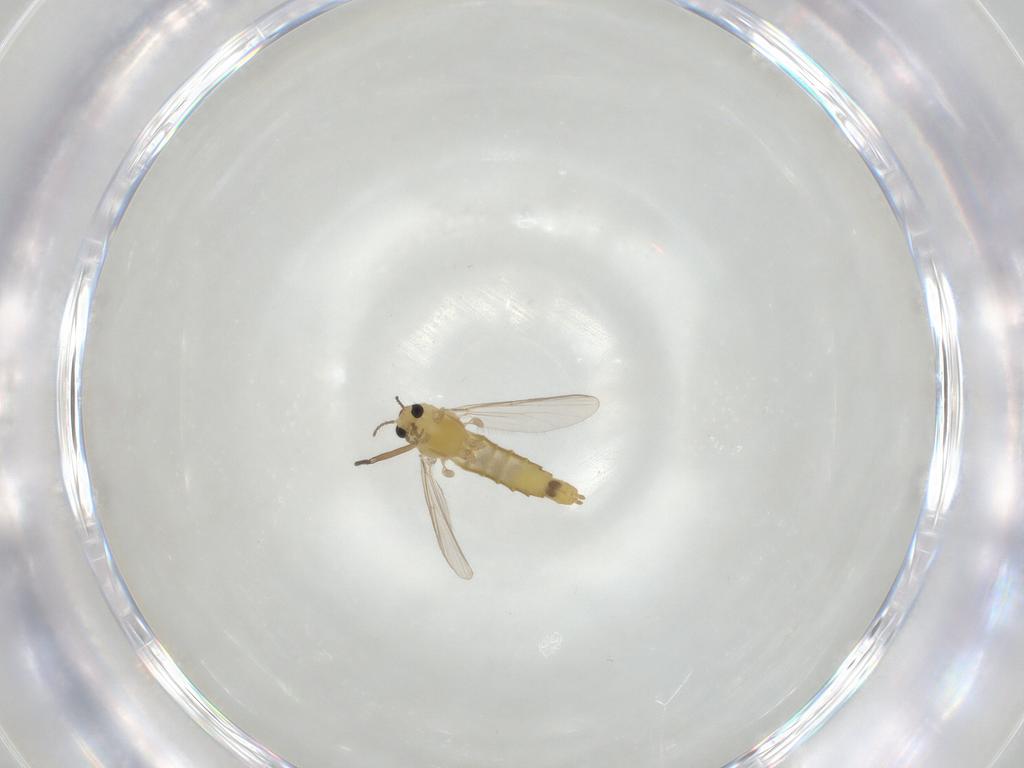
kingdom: Animalia
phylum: Arthropoda
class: Insecta
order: Diptera
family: Chironomidae
